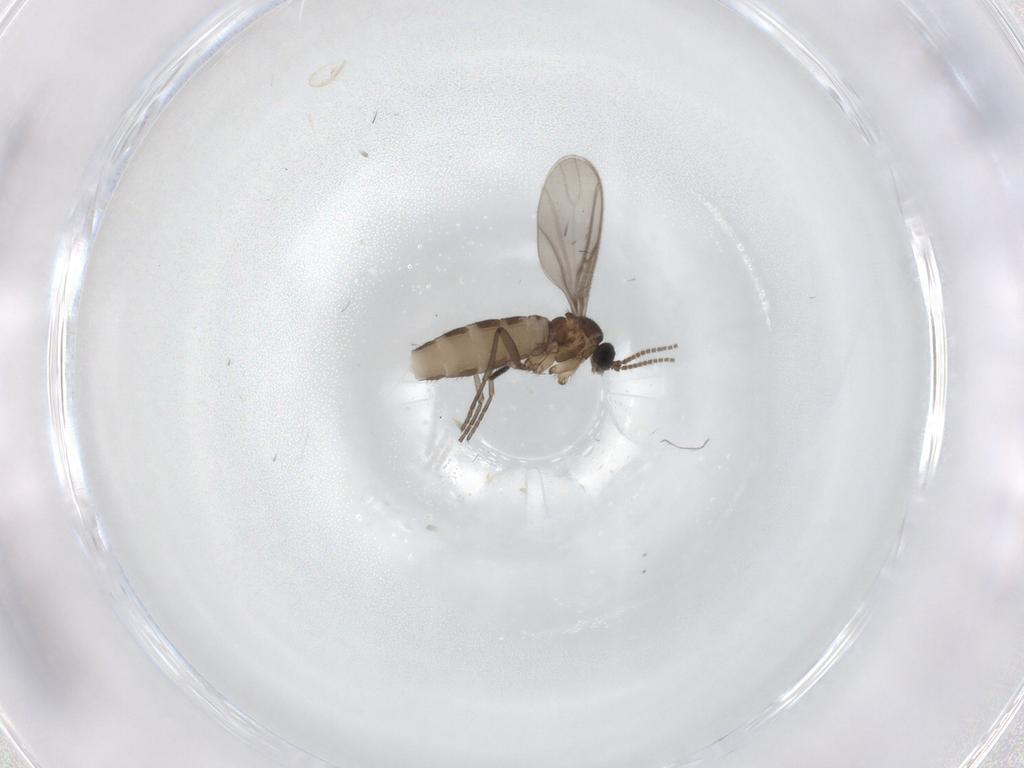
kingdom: Animalia
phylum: Arthropoda
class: Insecta
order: Diptera
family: Sciaridae
